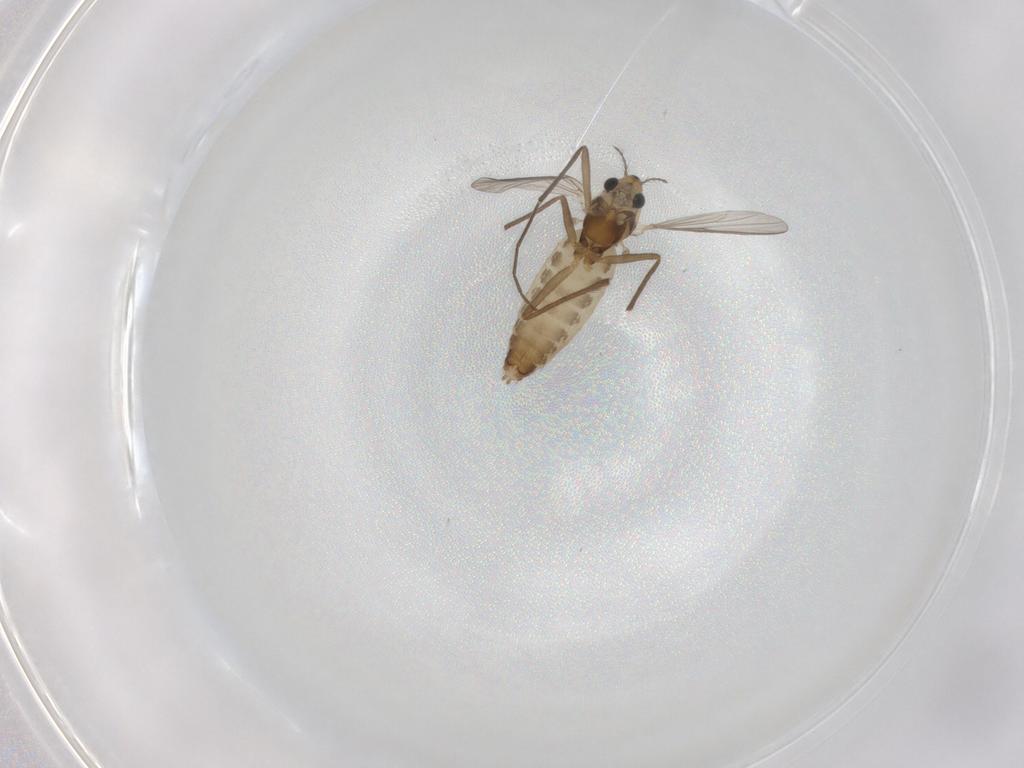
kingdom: Animalia
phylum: Arthropoda
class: Insecta
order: Diptera
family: Chironomidae
